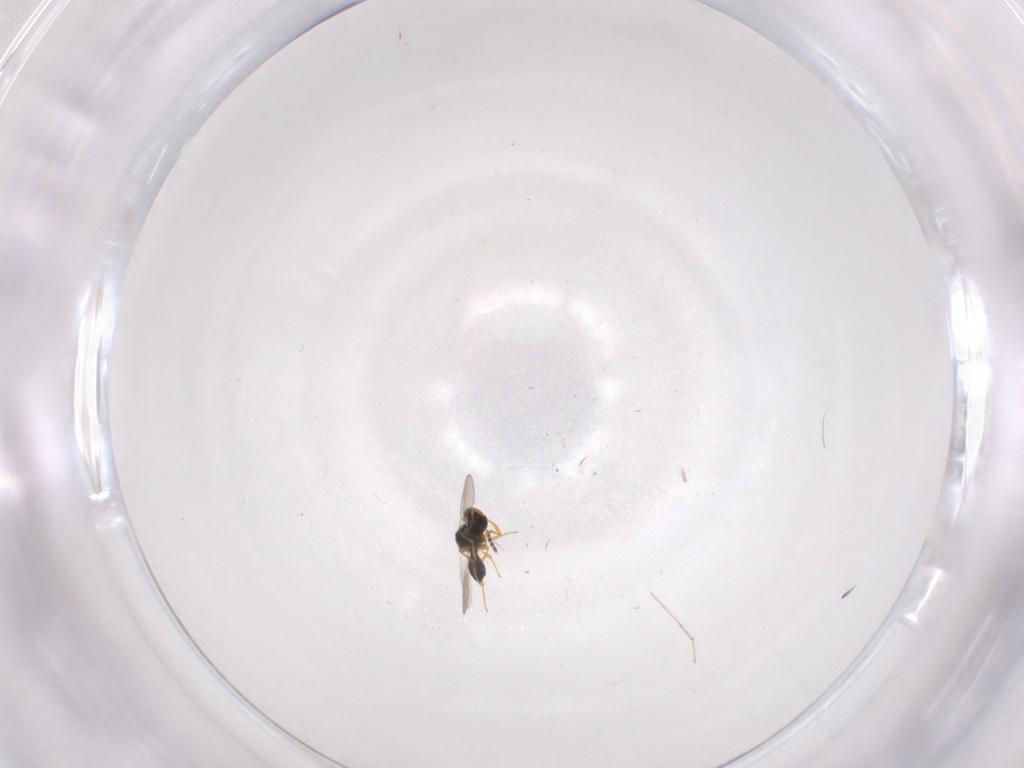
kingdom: Animalia
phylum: Arthropoda
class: Insecta
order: Hymenoptera
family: Platygastridae
